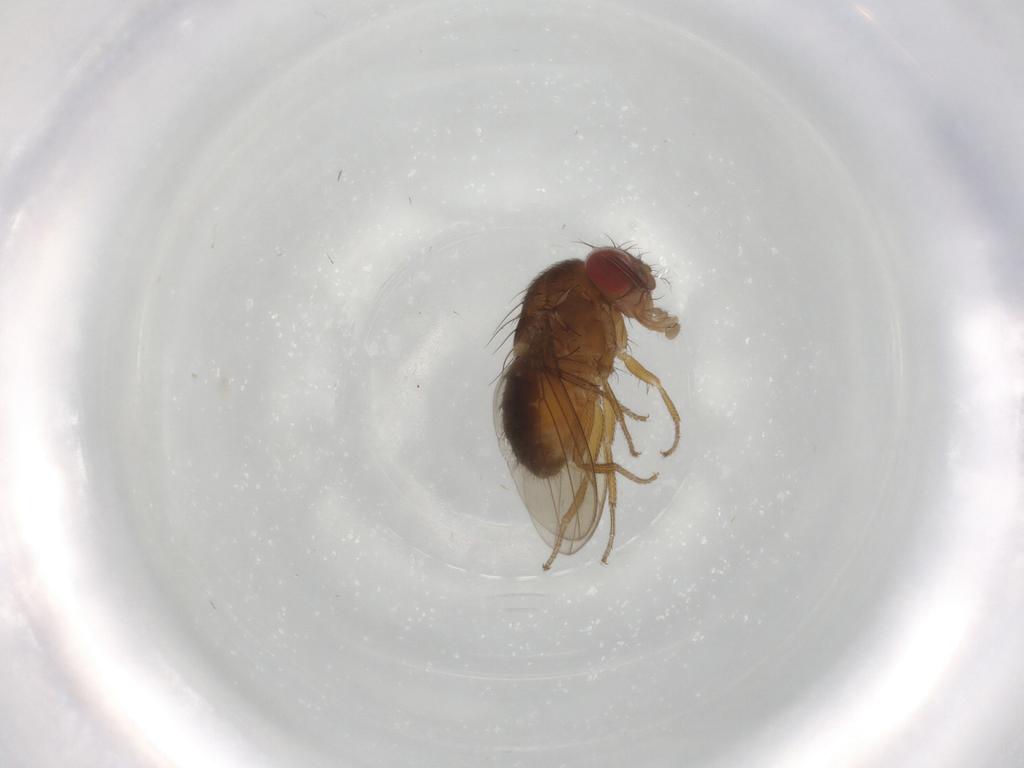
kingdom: Animalia
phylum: Arthropoda
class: Insecta
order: Diptera
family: Drosophilidae
